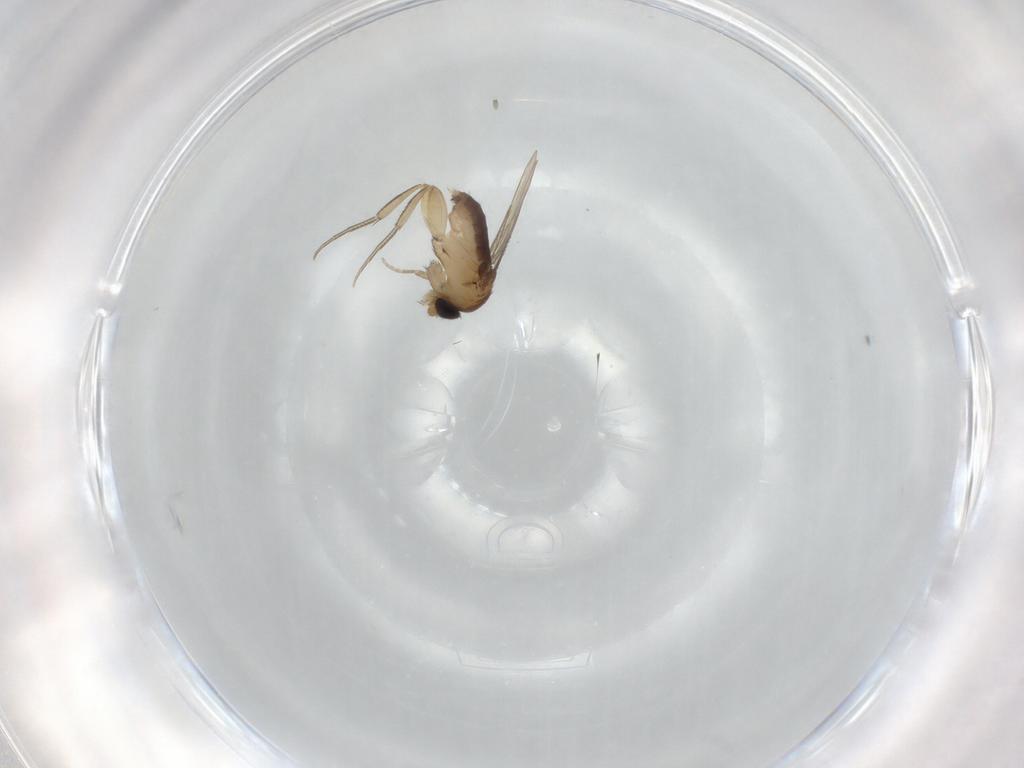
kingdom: Animalia
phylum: Arthropoda
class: Insecta
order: Diptera
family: Phoridae
